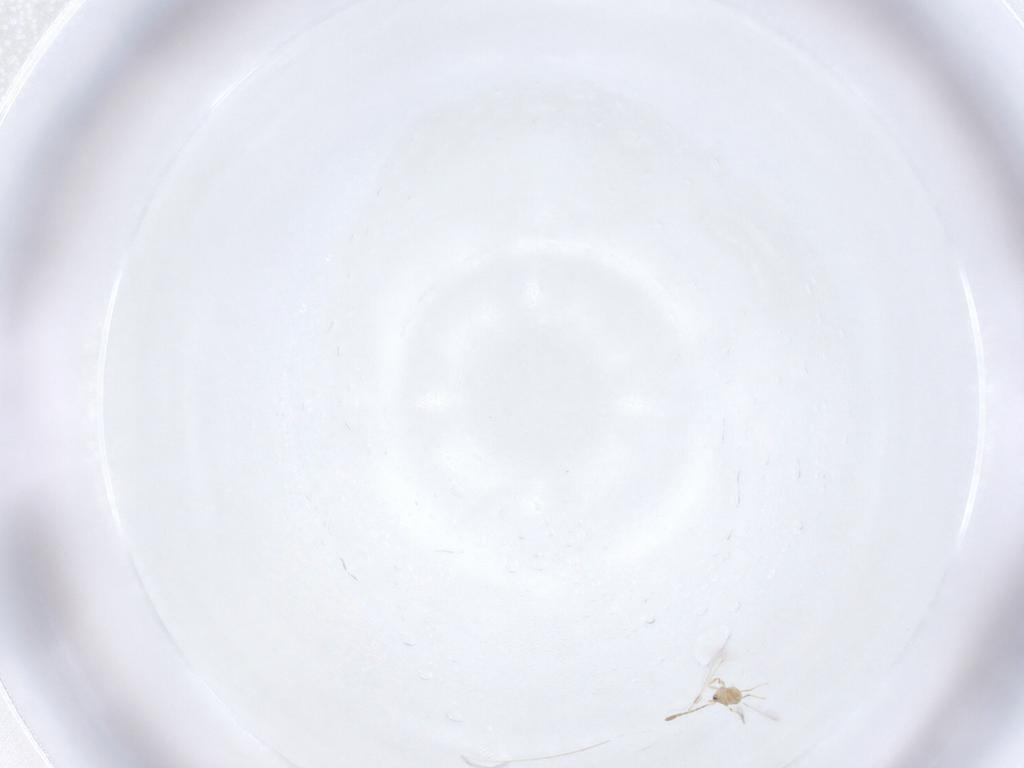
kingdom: Animalia
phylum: Arthropoda
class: Insecta
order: Hymenoptera
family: Mymaridae
